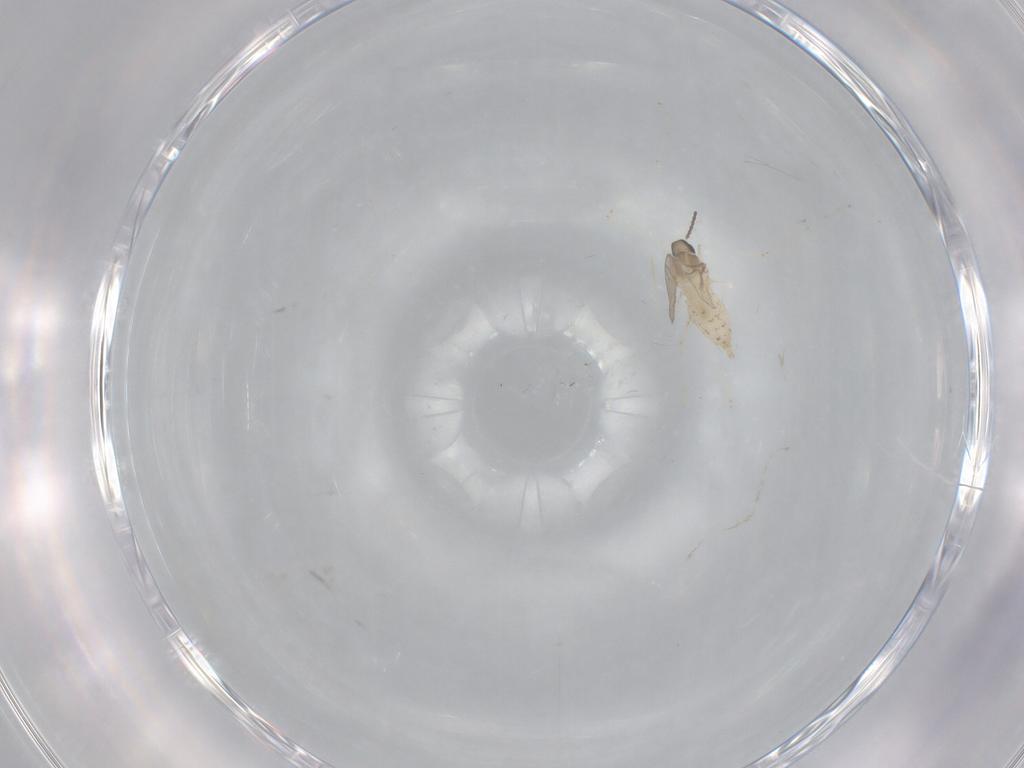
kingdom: Animalia
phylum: Arthropoda
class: Insecta
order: Diptera
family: Cecidomyiidae
